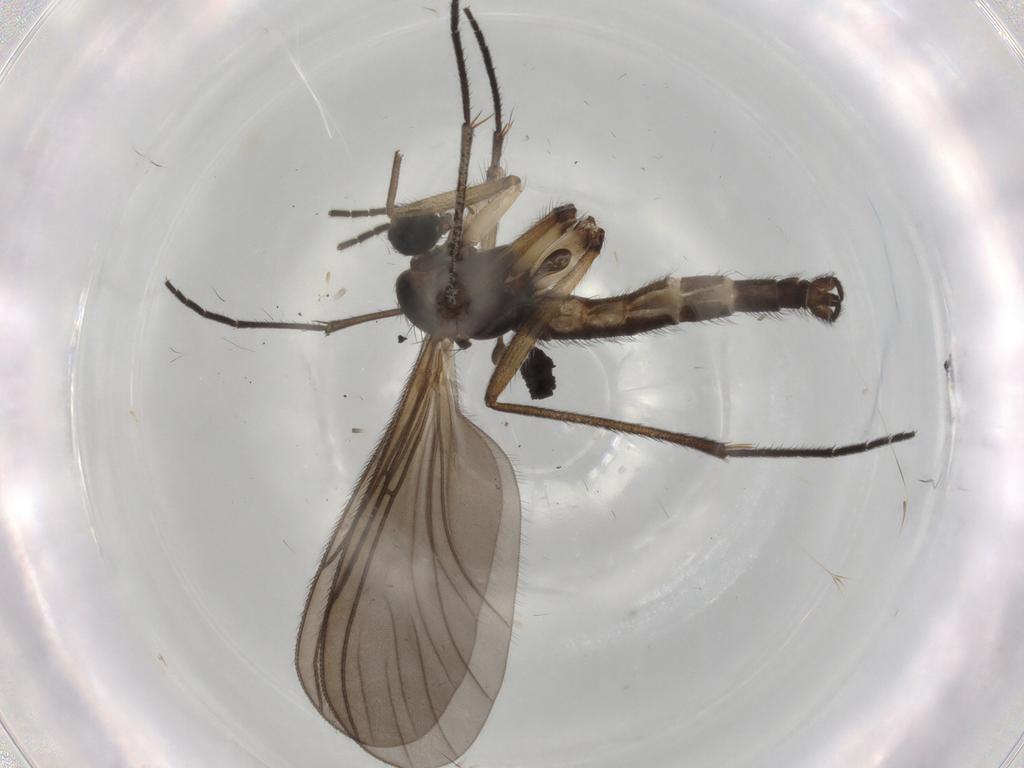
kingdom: Animalia
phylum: Arthropoda
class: Insecta
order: Diptera
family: Sciaridae
